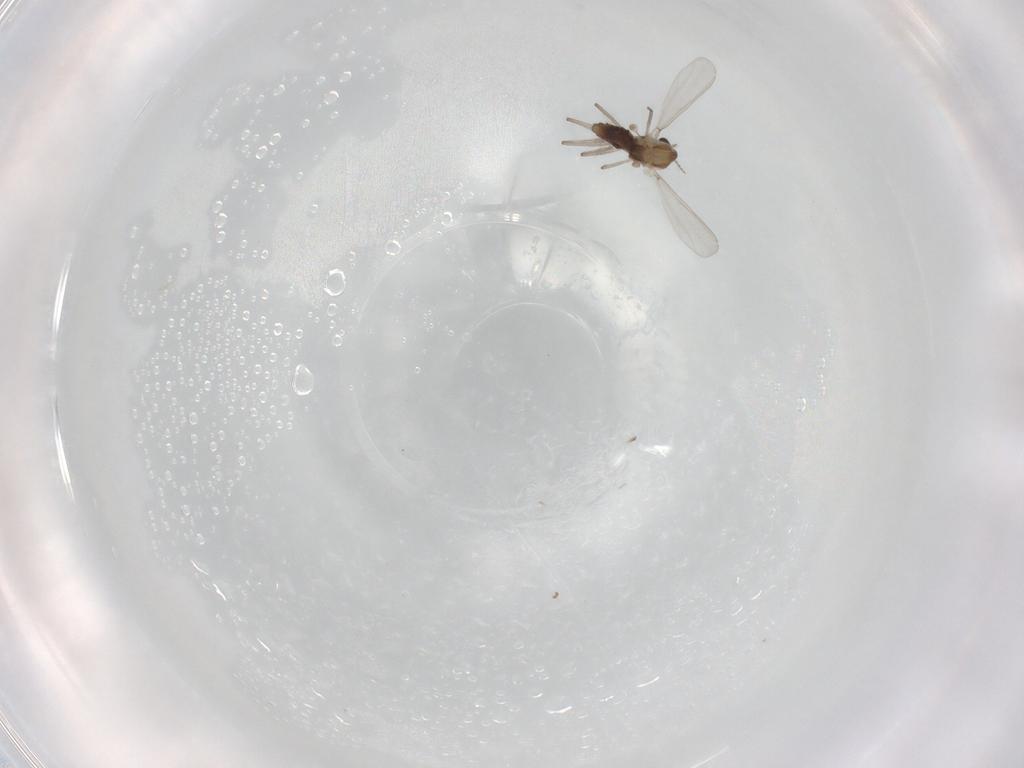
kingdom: Animalia
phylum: Arthropoda
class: Insecta
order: Diptera
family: Chironomidae
